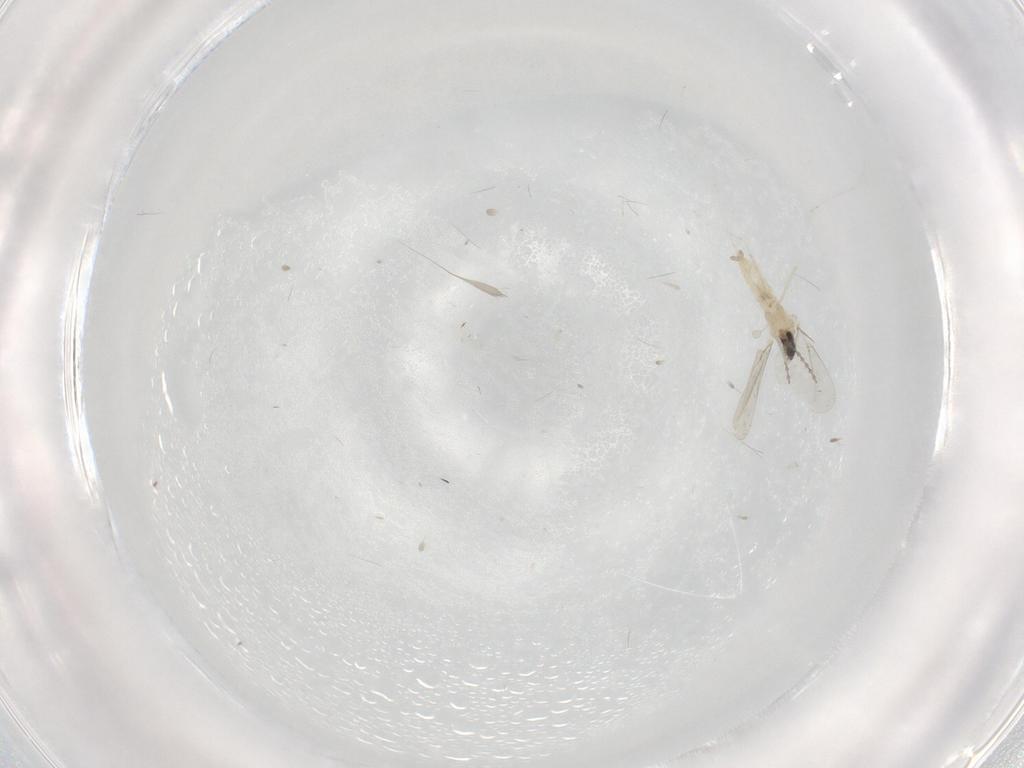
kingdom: Animalia
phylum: Arthropoda
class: Insecta
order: Diptera
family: Cecidomyiidae
